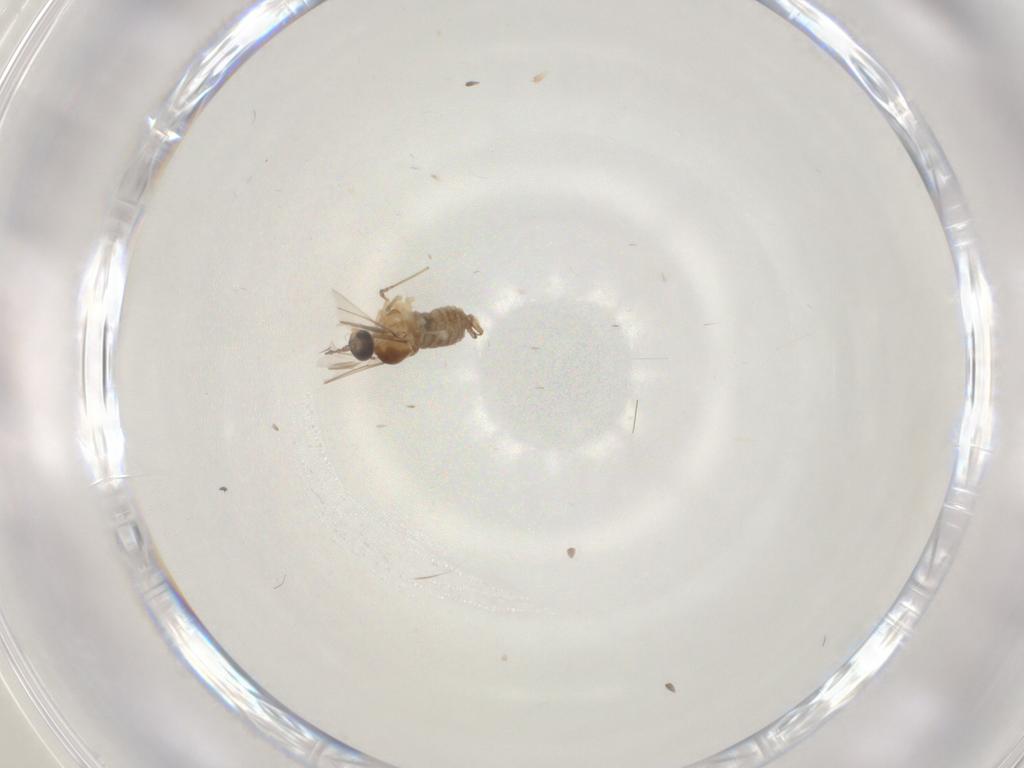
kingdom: Animalia
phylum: Arthropoda
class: Insecta
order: Diptera
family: Cecidomyiidae
